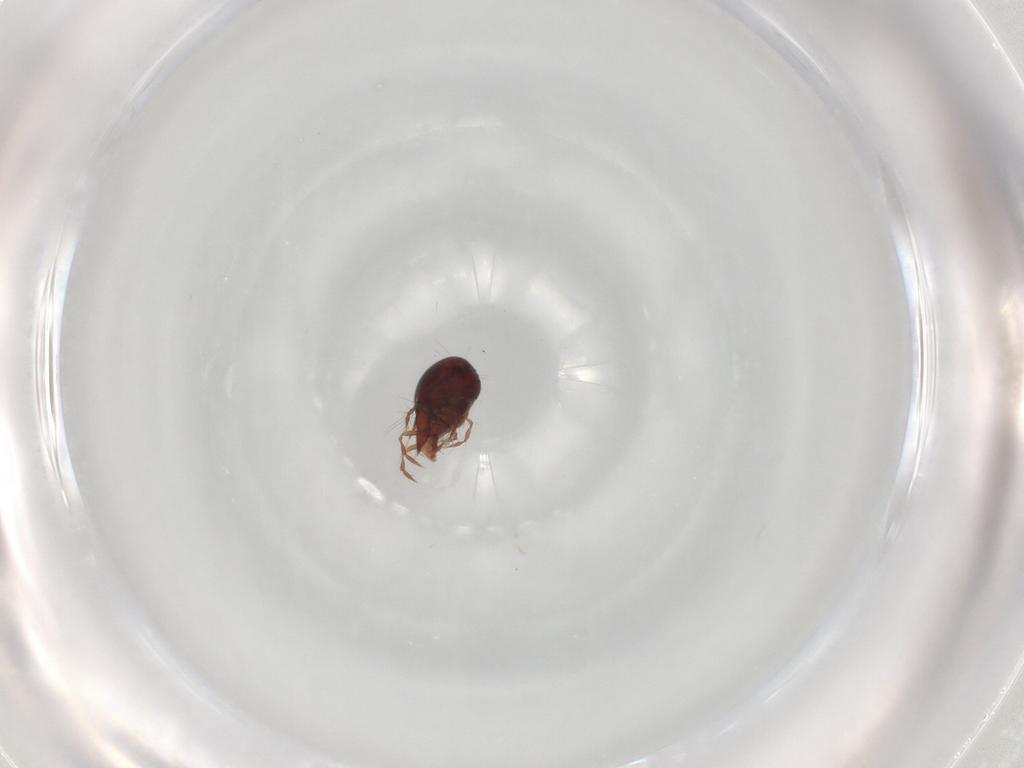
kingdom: Animalia
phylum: Arthropoda
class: Arachnida
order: Sarcoptiformes
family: Ceratoppiidae
